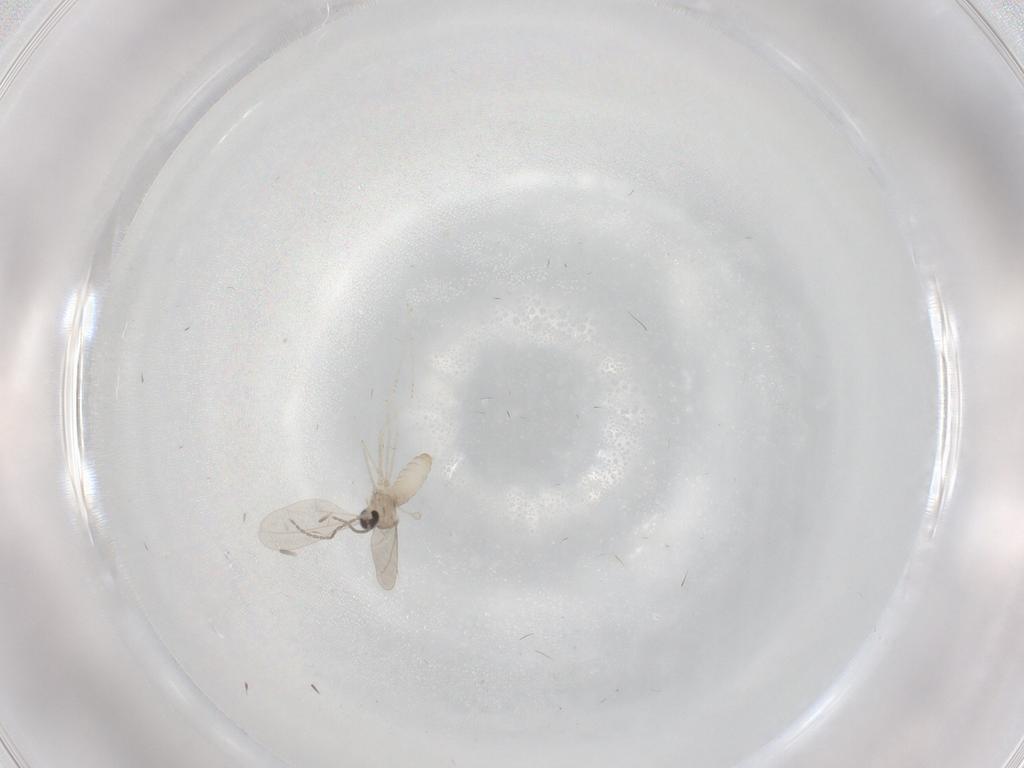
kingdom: Animalia
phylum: Arthropoda
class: Insecta
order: Diptera
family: Cecidomyiidae
